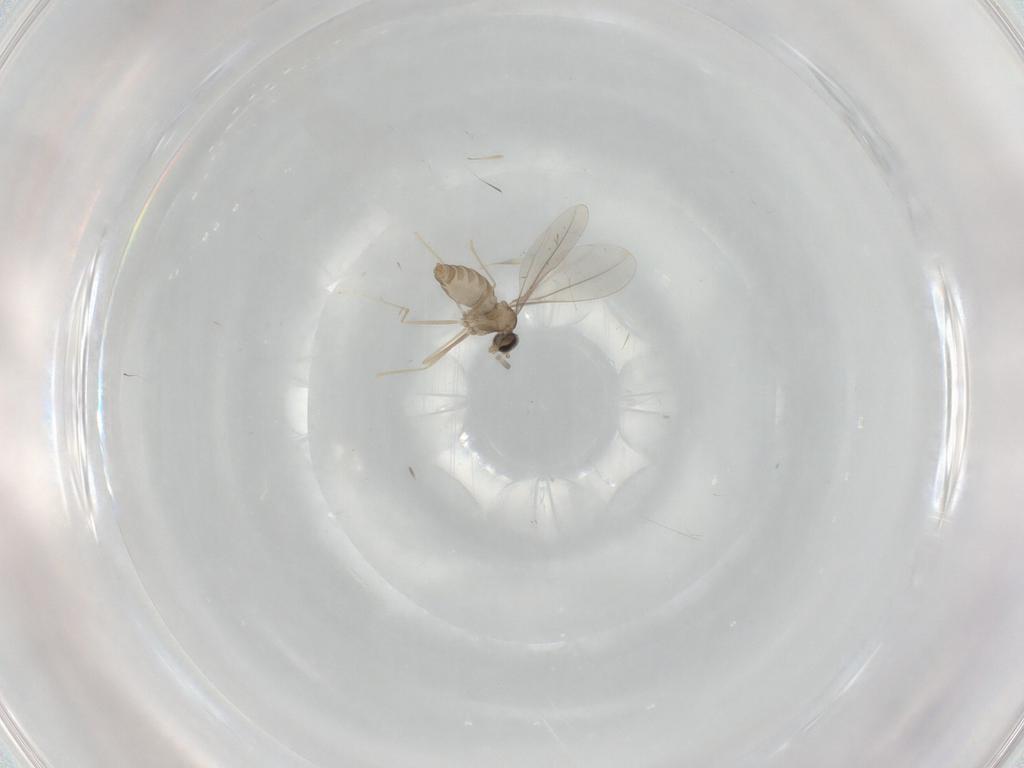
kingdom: Animalia
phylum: Arthropoda
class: Insecta
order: Diptera
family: Cecidomyiidae
